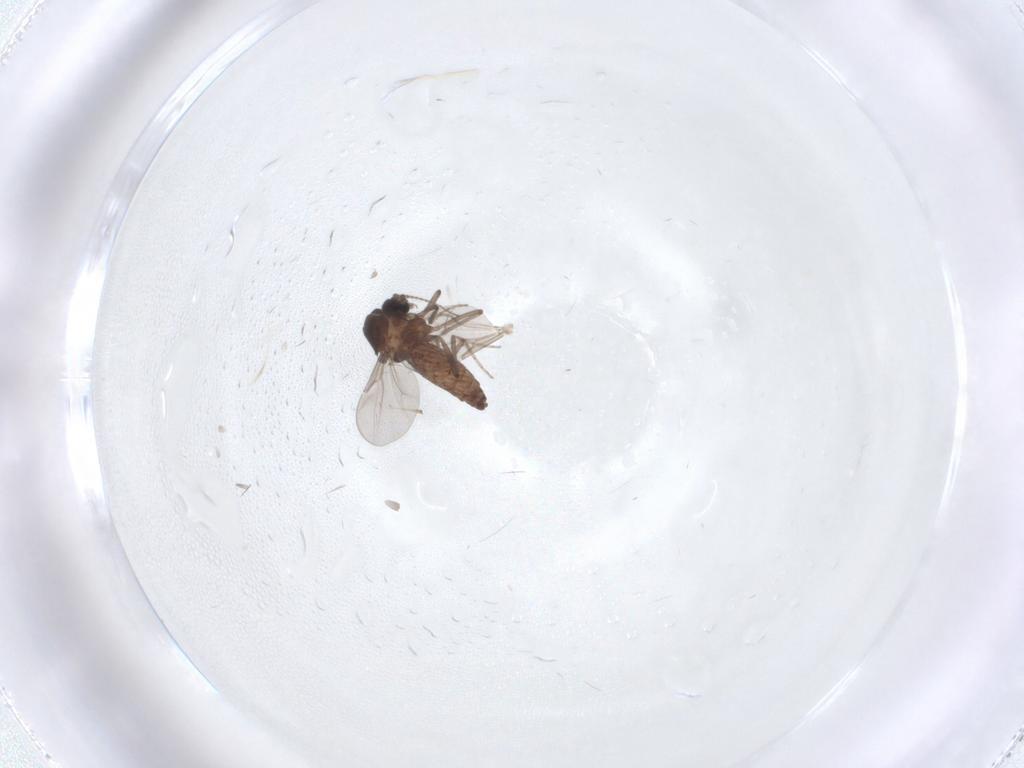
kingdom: Animalia
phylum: Arthropoda
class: Insecta
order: Diptera
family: Ceratopogonidae
